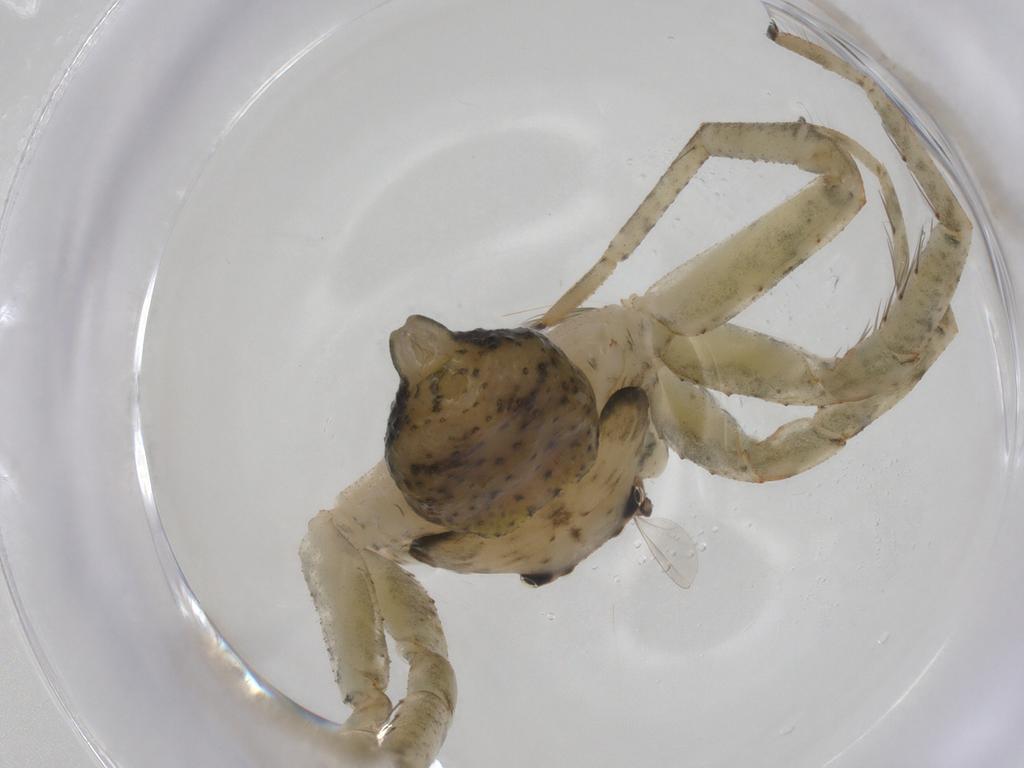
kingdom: Animalia
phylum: Arthropoda
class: Insecta
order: Diptera
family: Cecidomyiidae
